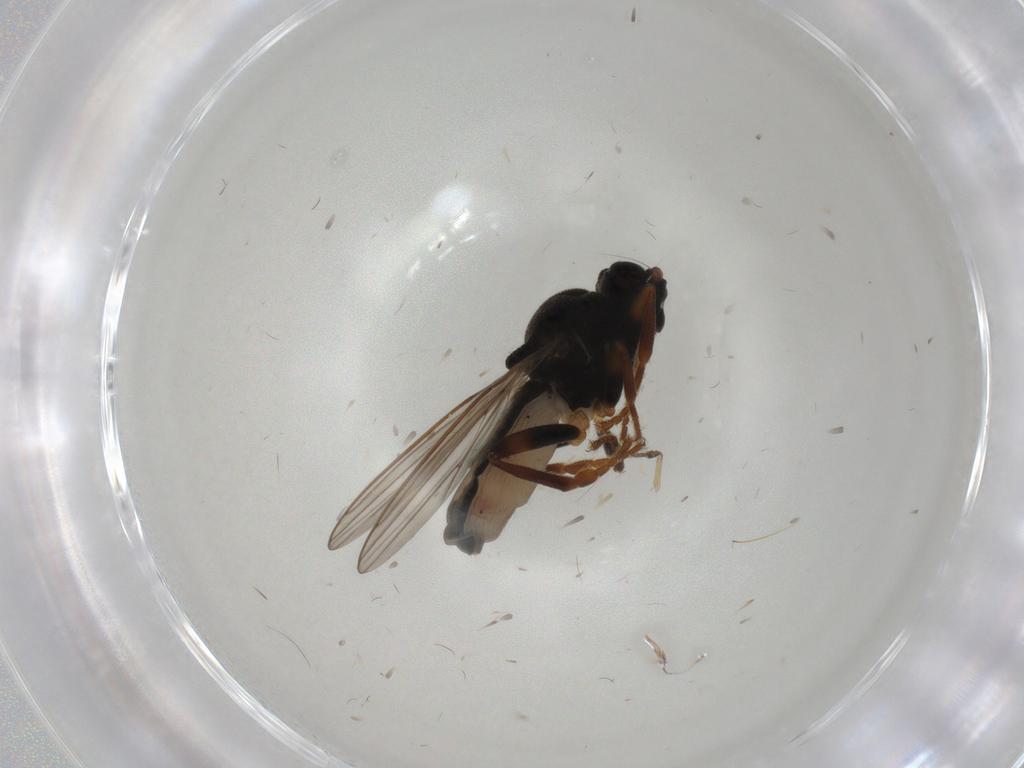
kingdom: Animalia
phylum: Arthropoda
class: Insecta
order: Diptera
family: Sphaeroceridae
